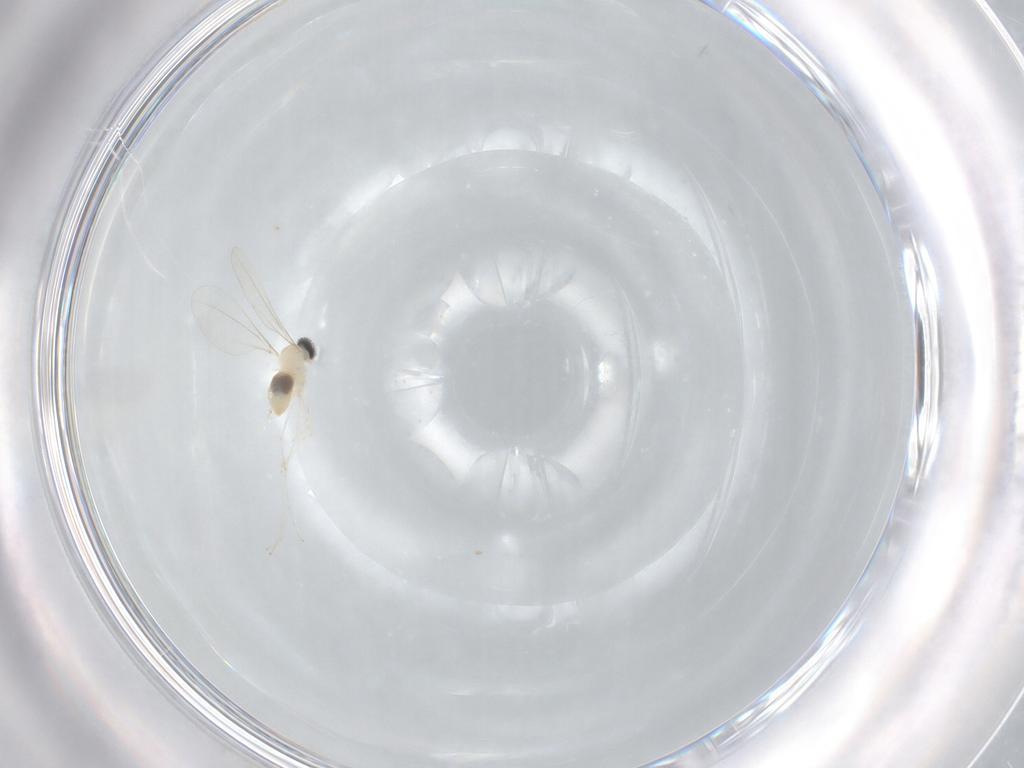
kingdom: Animalia
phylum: Arthropoda
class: Insecta
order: Diptera
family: Cecidomyiidae
